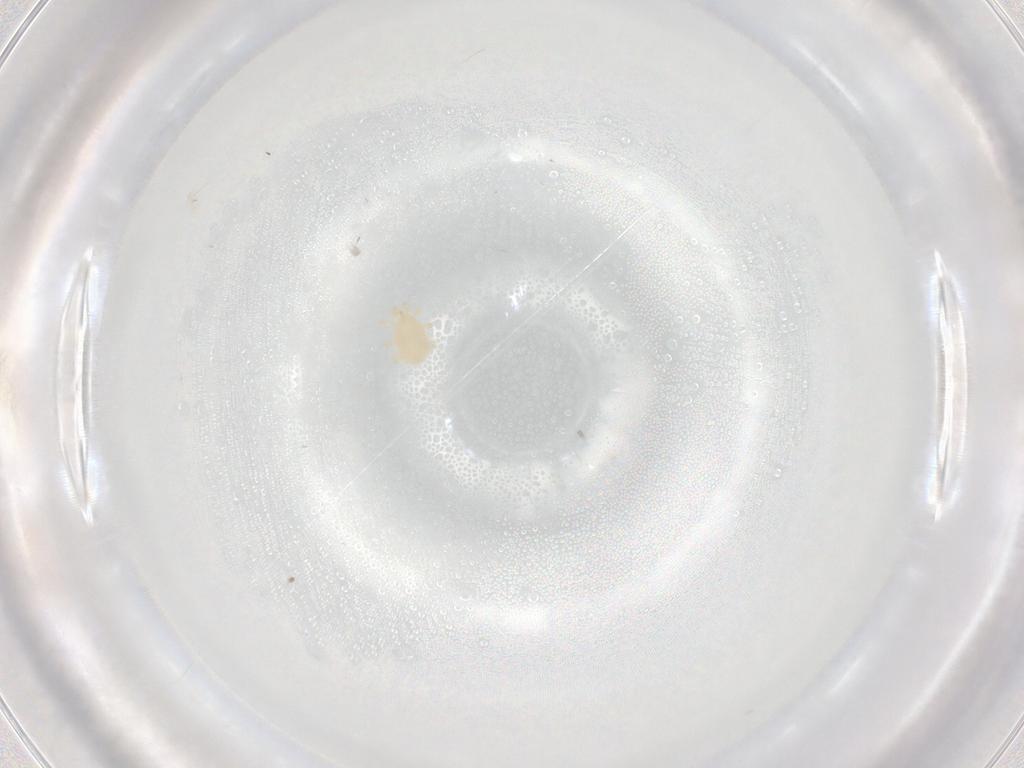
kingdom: Animalia
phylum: Arthropoda
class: Arachnida
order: Mesostigmata
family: Melicharidae
